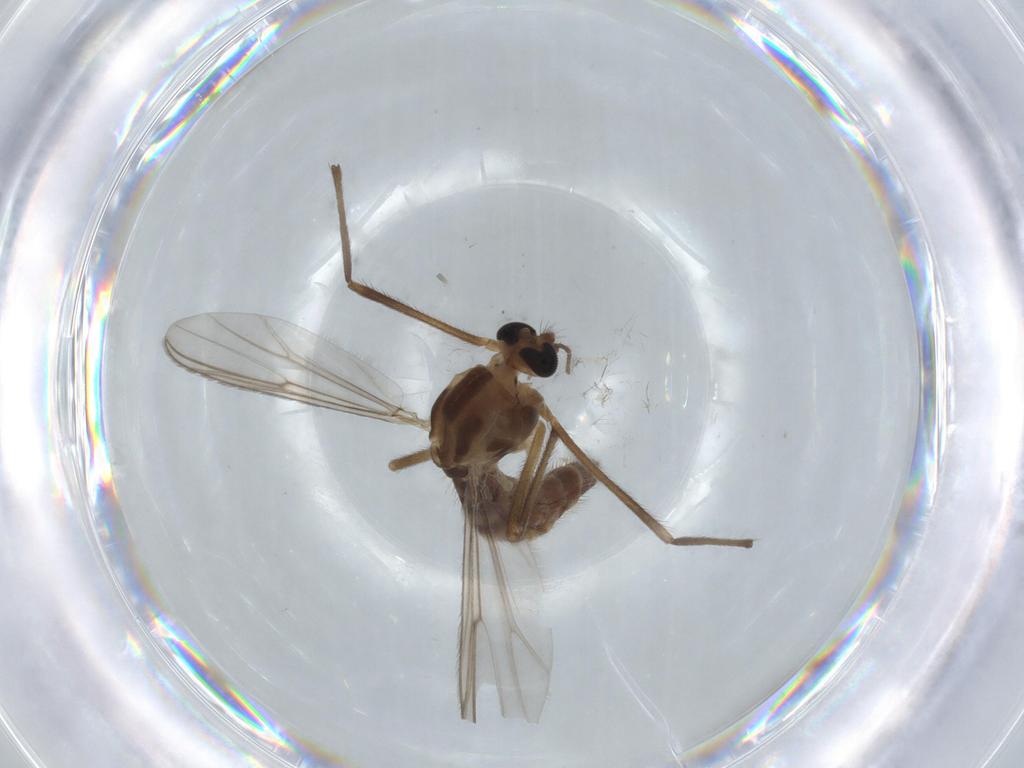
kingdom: Animalia
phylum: Arthropoda
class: Insecta
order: Diptera
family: Chironomidae
